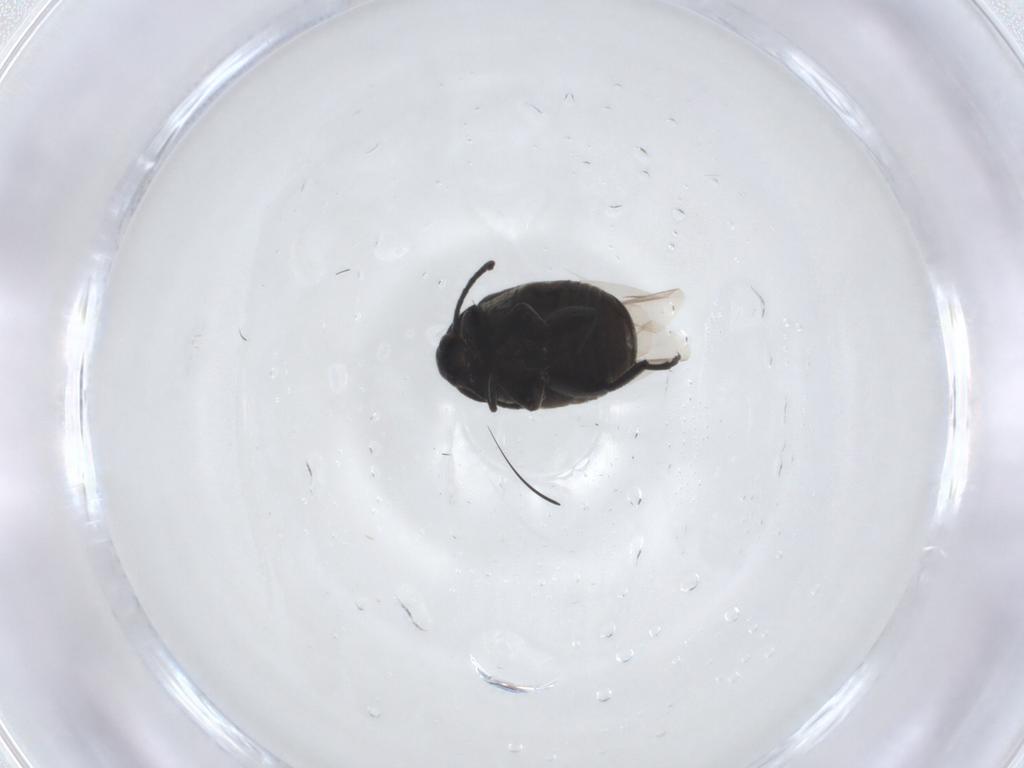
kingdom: Animalia
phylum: Arthropoda
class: Insecta
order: Coleoptera
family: Chrysomelidae
